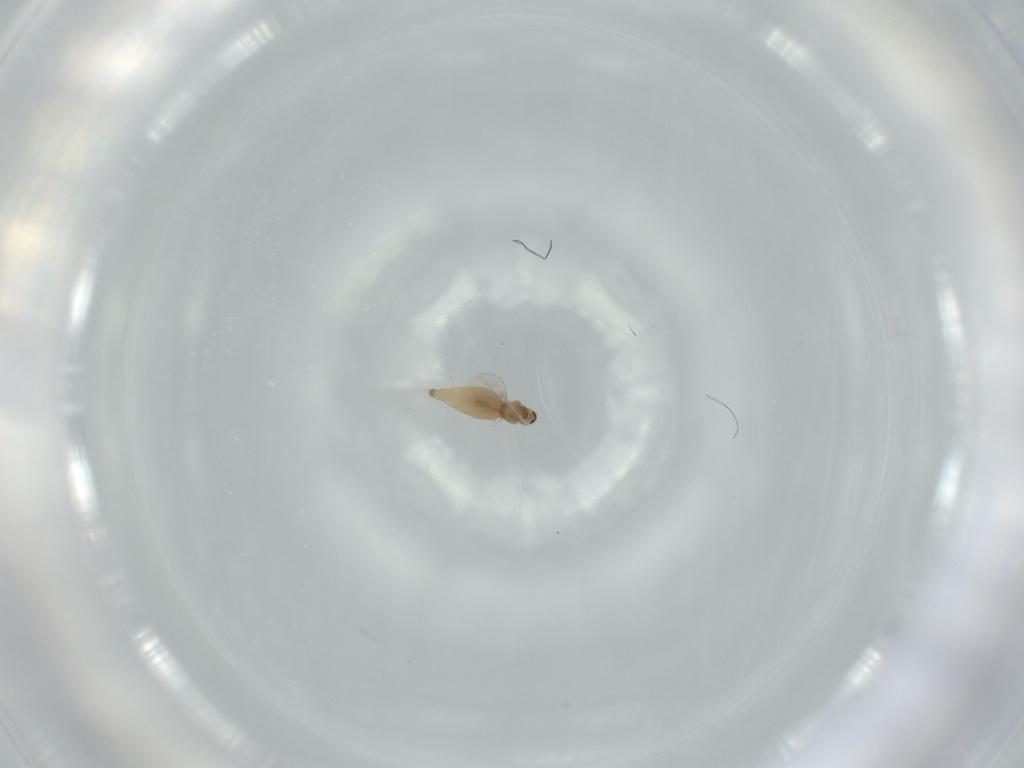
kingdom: Animalia
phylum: Arthropoda
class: Insecta
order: Diptera
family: Cecidomyiidae
